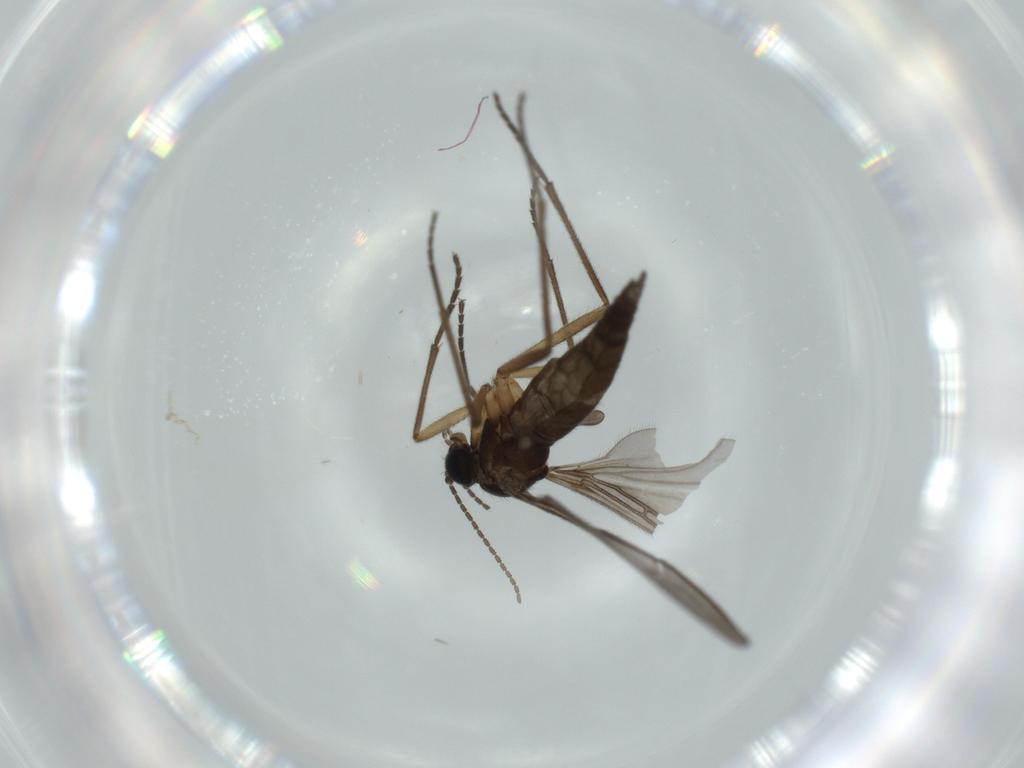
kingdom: Animalia
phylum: Arthropoda
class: Insecta
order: Diptera
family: Sciaridae
